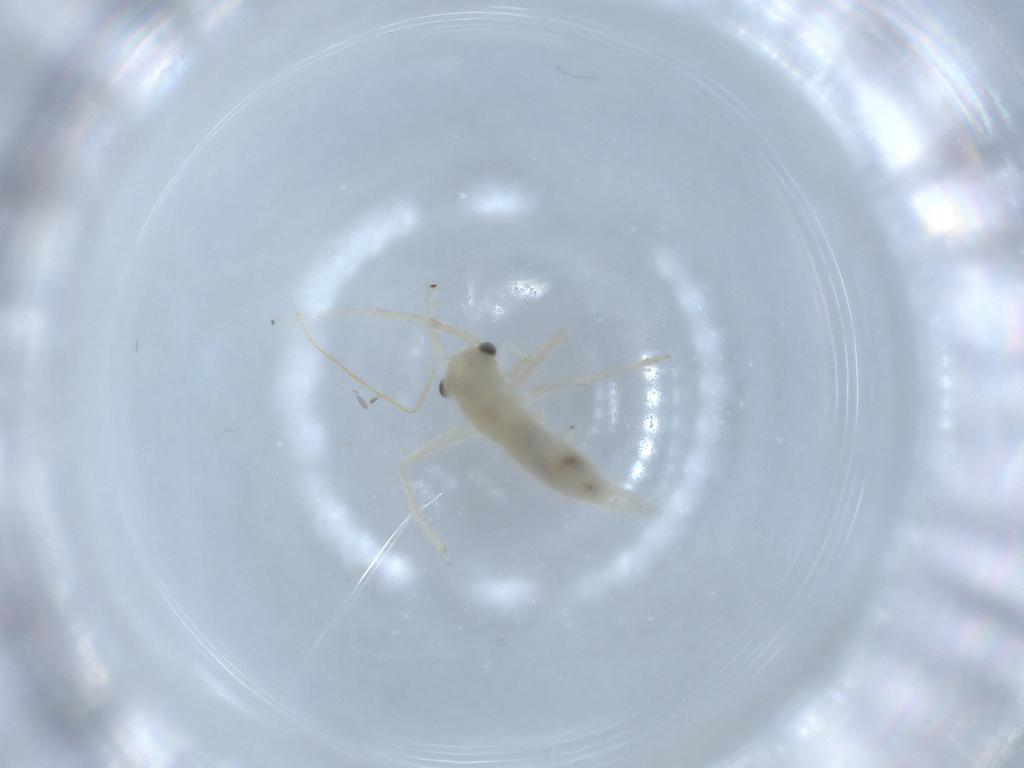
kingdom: Animalia
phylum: Arthropoda
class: Insecta
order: Orthoptera
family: Trigonidiidae
